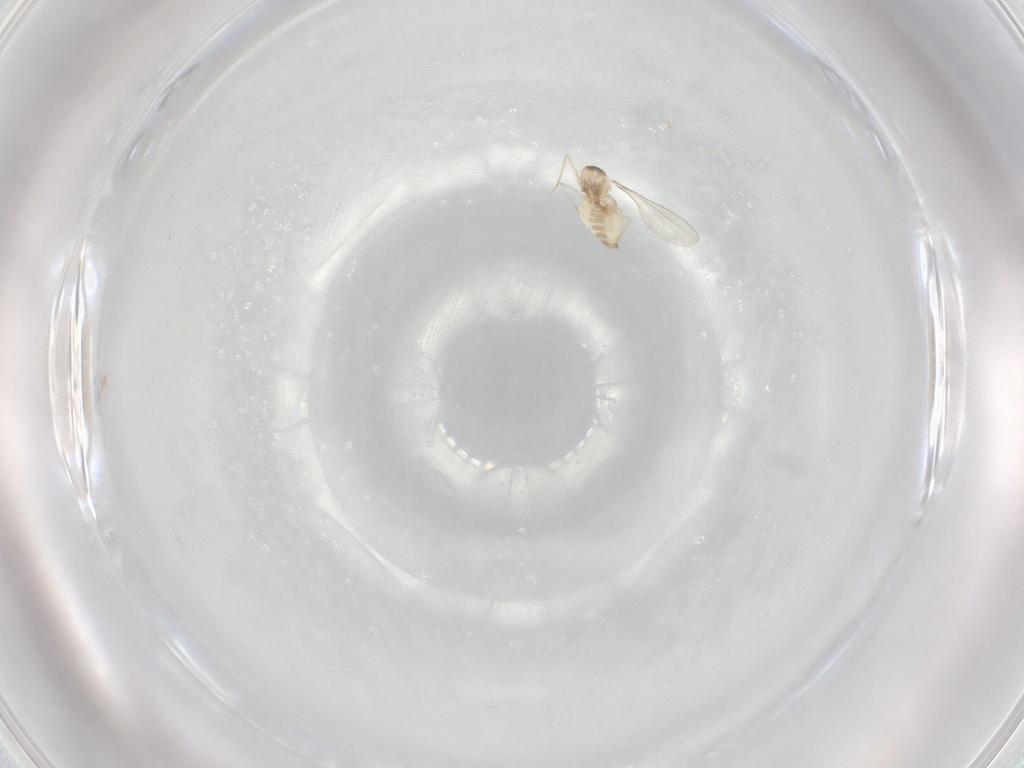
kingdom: Animalia
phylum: Arthropoda
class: Insecta
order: Diptera
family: Cecidomyiidae
